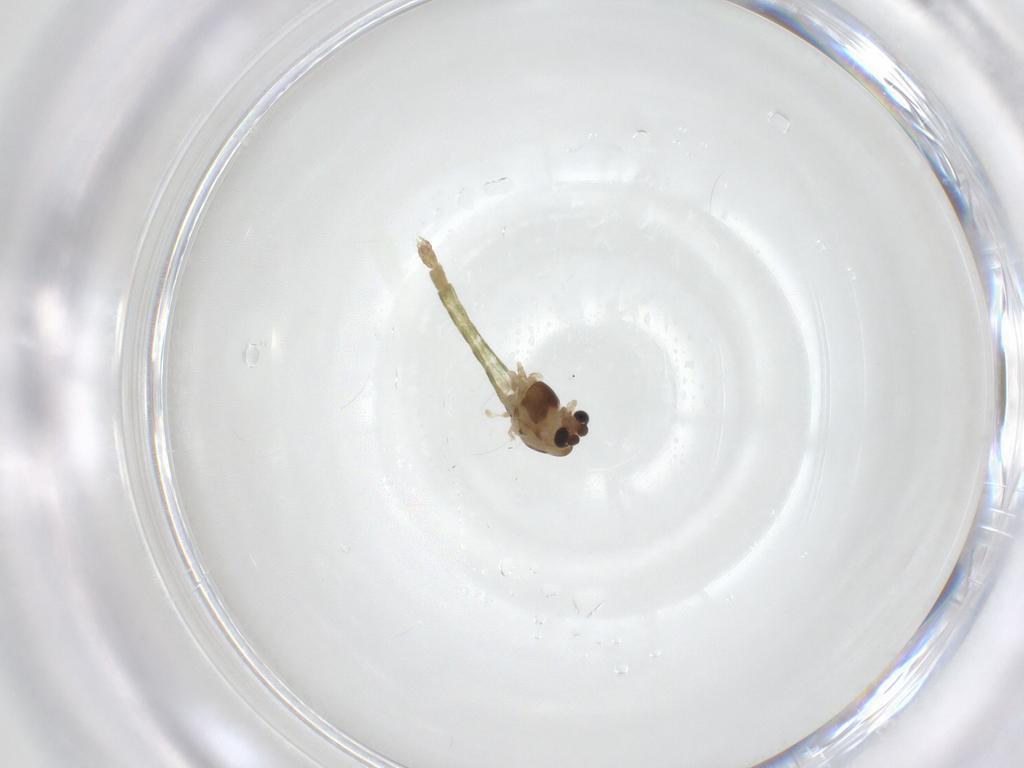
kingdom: Animalia
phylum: Arthropoda
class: Insecta
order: Diptera
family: Chironomidae
